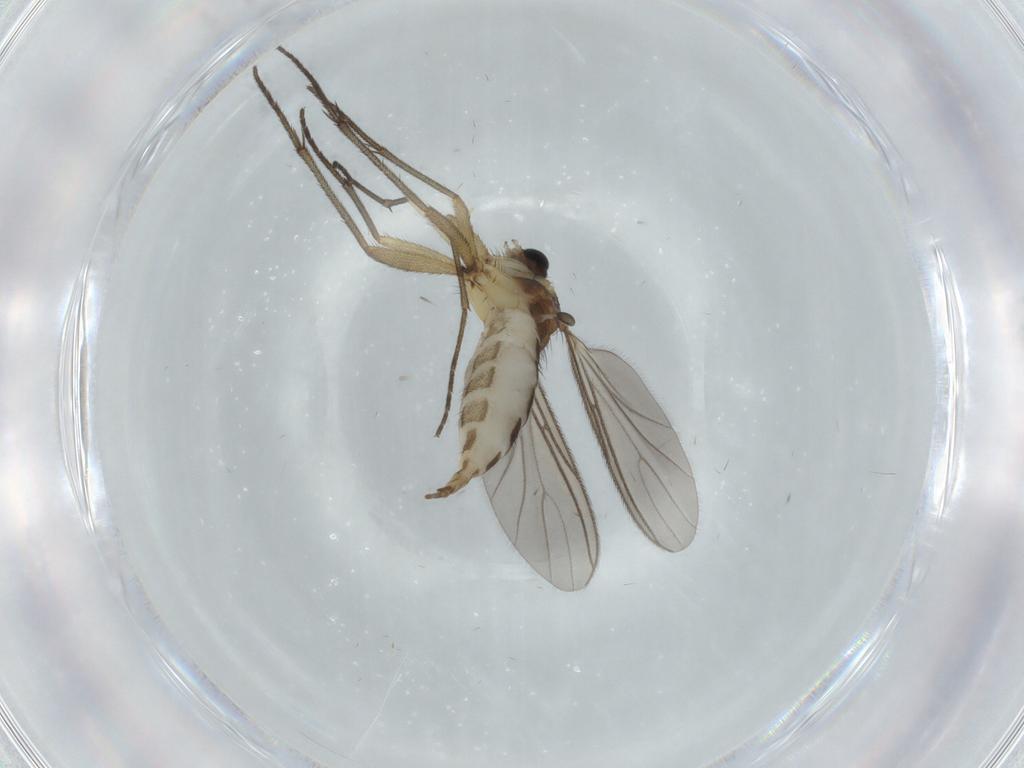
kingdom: Animalia
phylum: Arthropoda
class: Insecta
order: Diptera
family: Sciaridae
